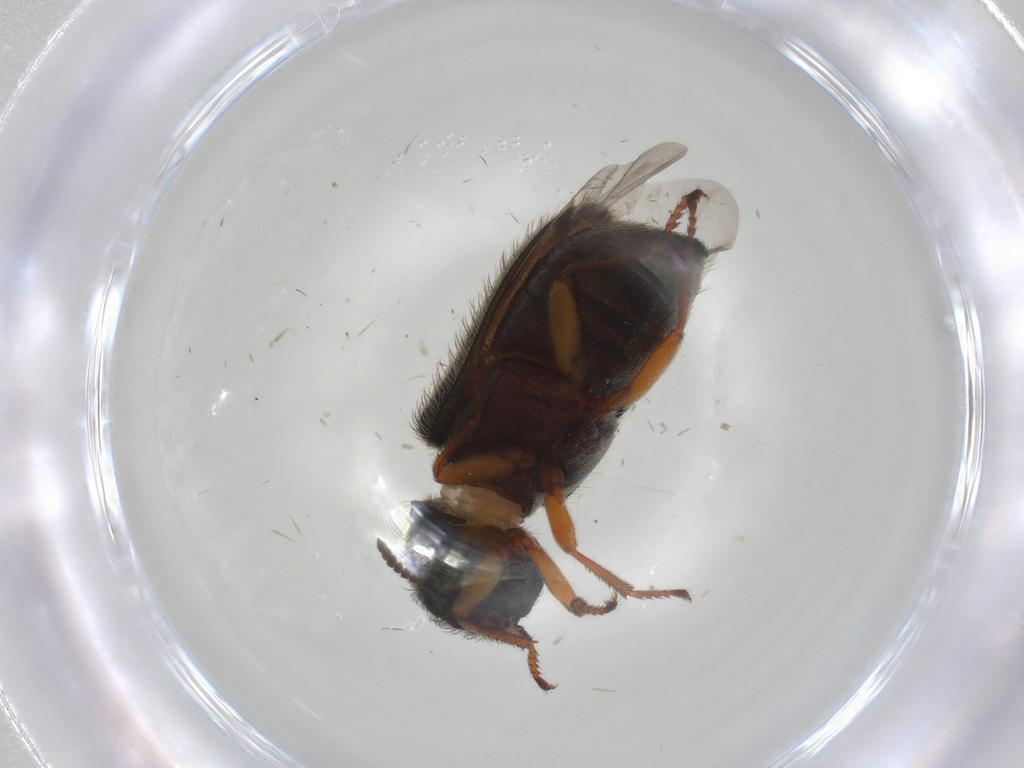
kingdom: Animalia
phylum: Arthropoda
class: Insecta
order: Coleoptera
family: Melyridae
